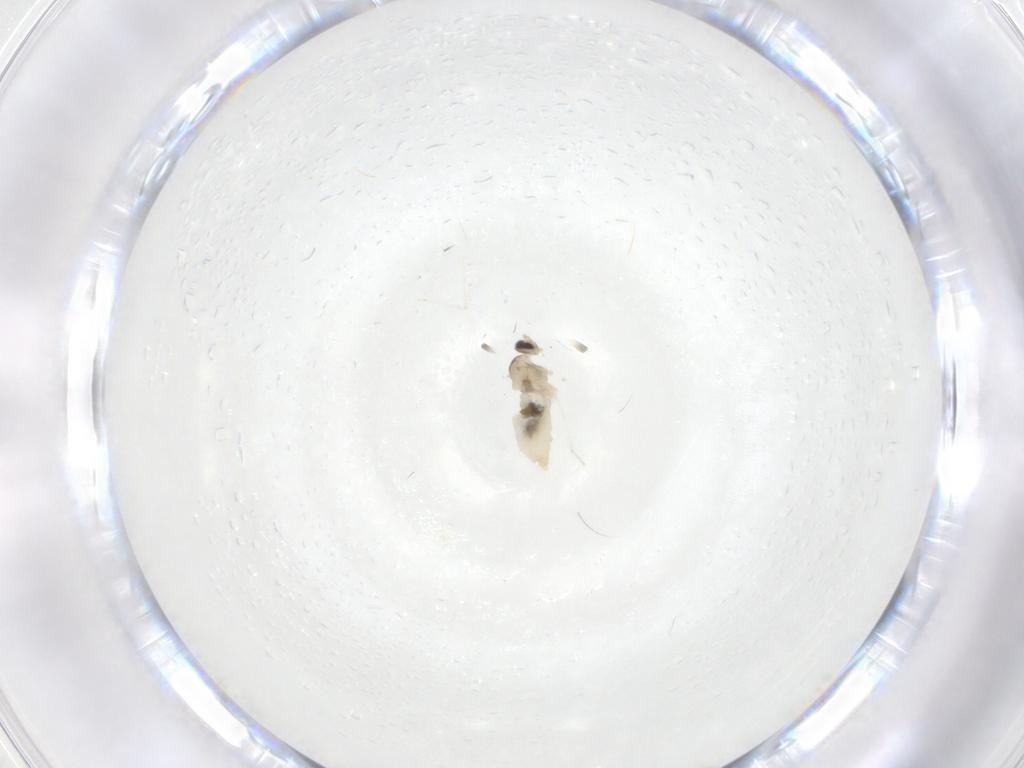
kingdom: Animalia
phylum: Arthropoda
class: Insecta
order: Diptera
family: Cecidomyiidae
